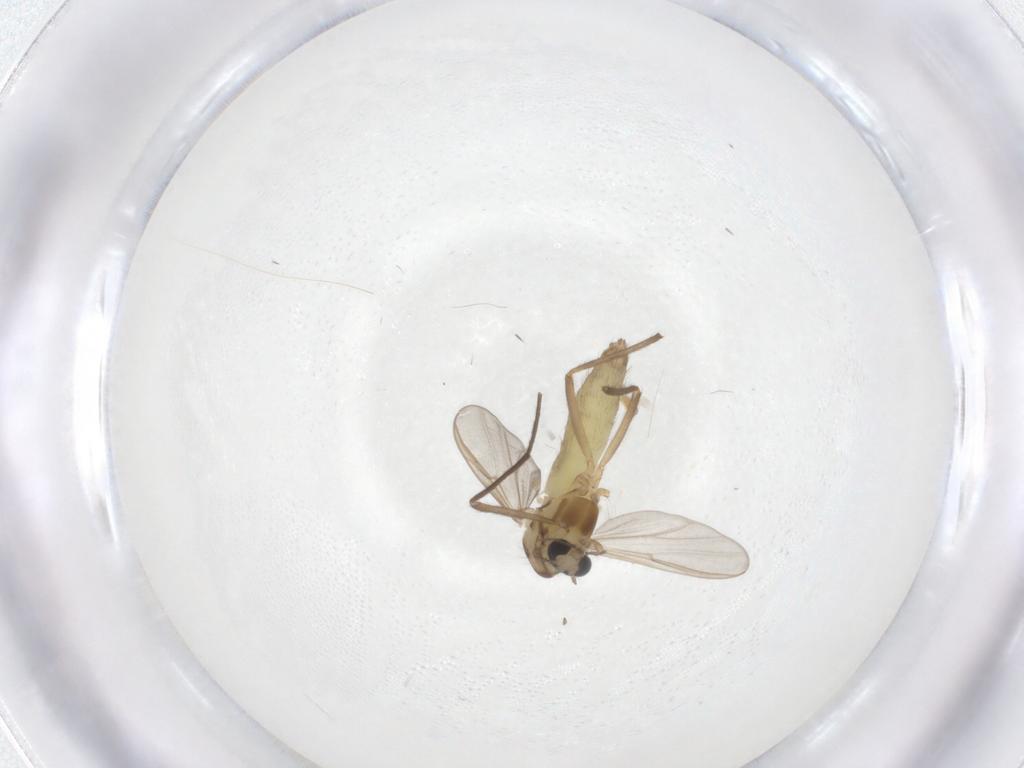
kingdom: Animalia
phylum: Arthropoda
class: Insecta
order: Diptera
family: Chironomidae
